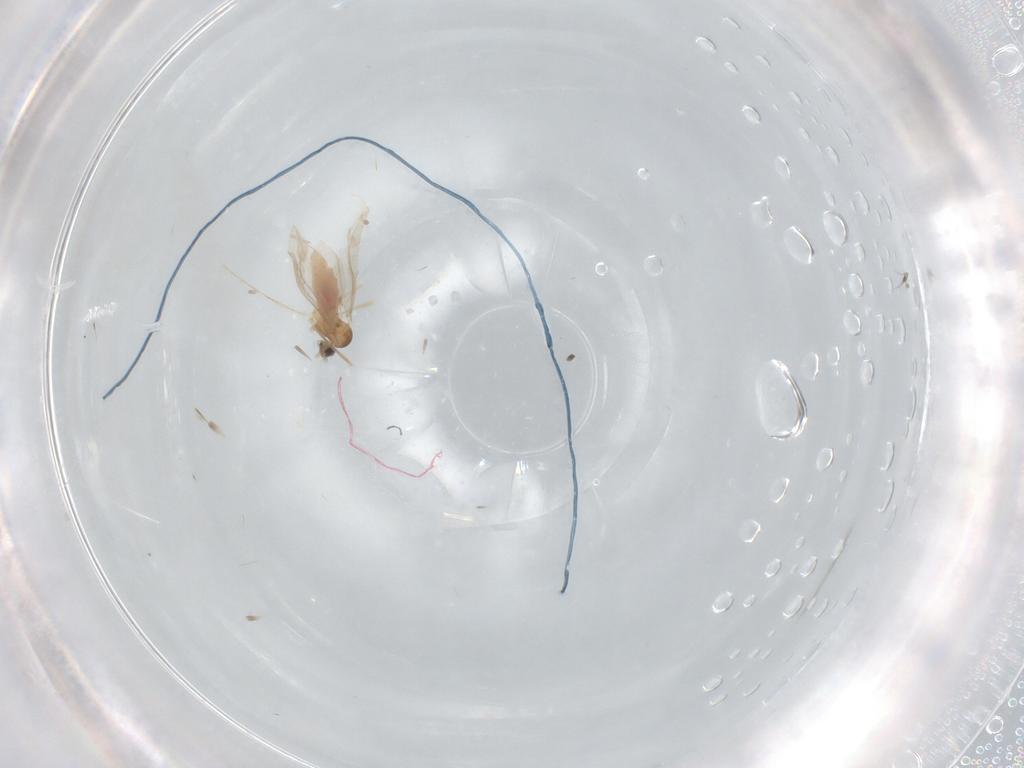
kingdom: Animalia
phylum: Arthropoda
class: Insecta
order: Diptera
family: Cecidomyiidae
